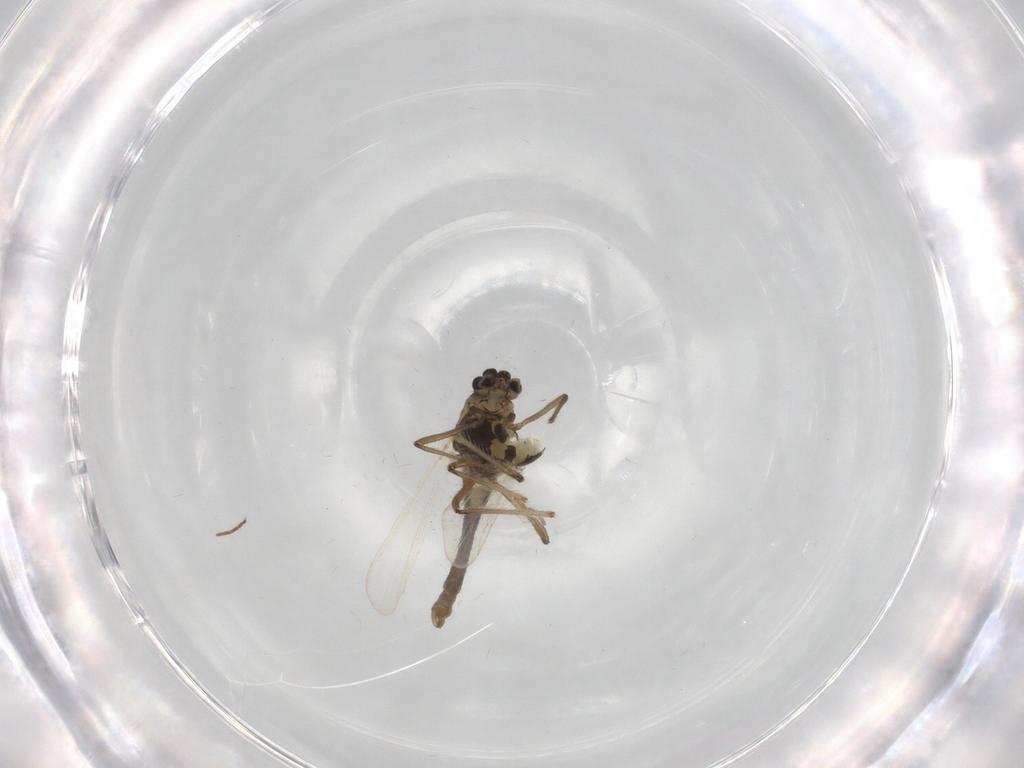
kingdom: Animalia
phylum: Arthropoda
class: Insecta
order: Diptera
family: Chironomidae
